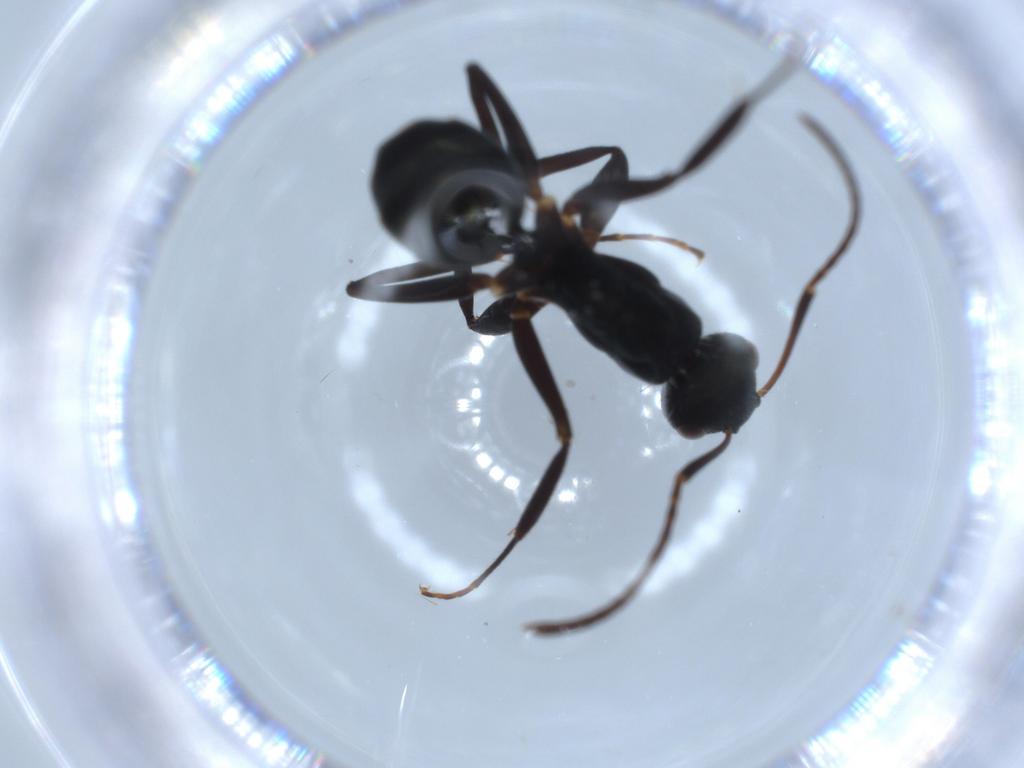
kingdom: Animalia
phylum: Arthropoda
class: Insecta
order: Hymenoptera
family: Formicidae
